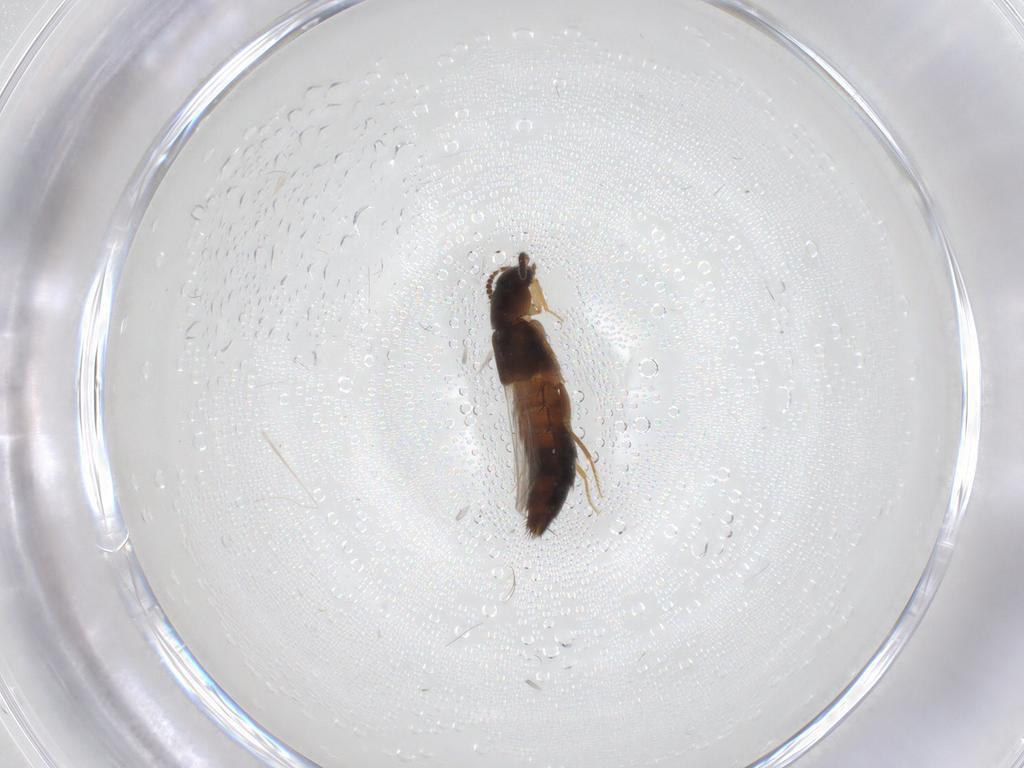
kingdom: Animalia
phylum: Arthropoda
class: Insecta
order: Coleoptera
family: Staphylinidae
